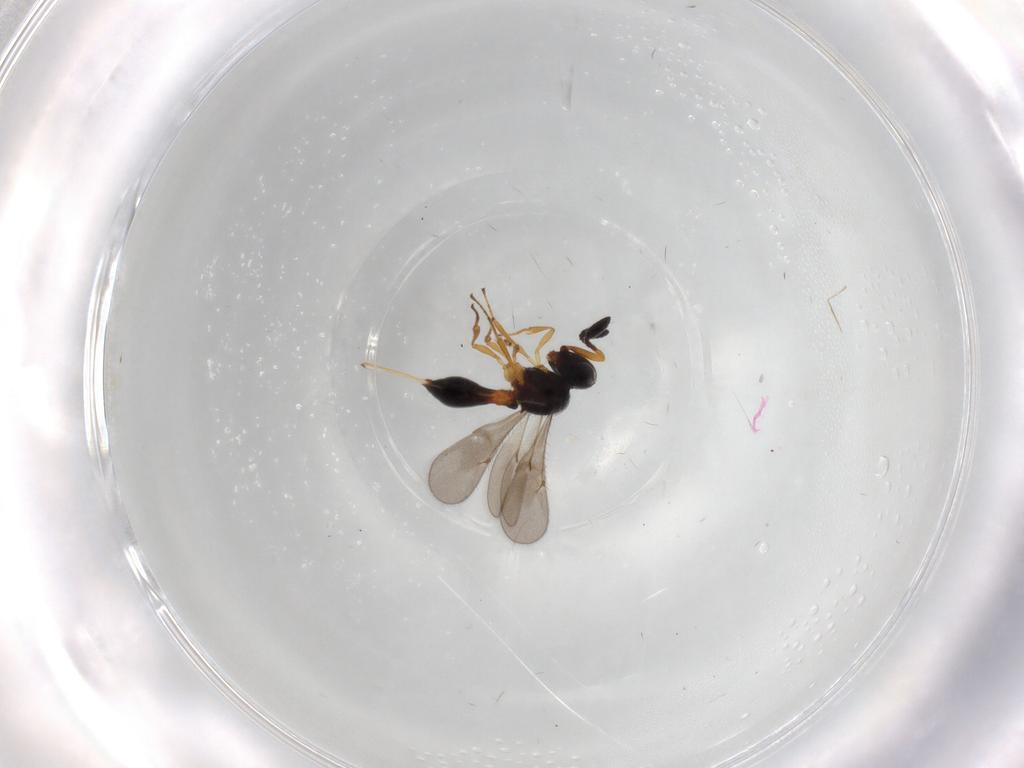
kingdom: Animalia
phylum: Arthropoda
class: Insecta
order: Hymenoptera
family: Scelionidae
